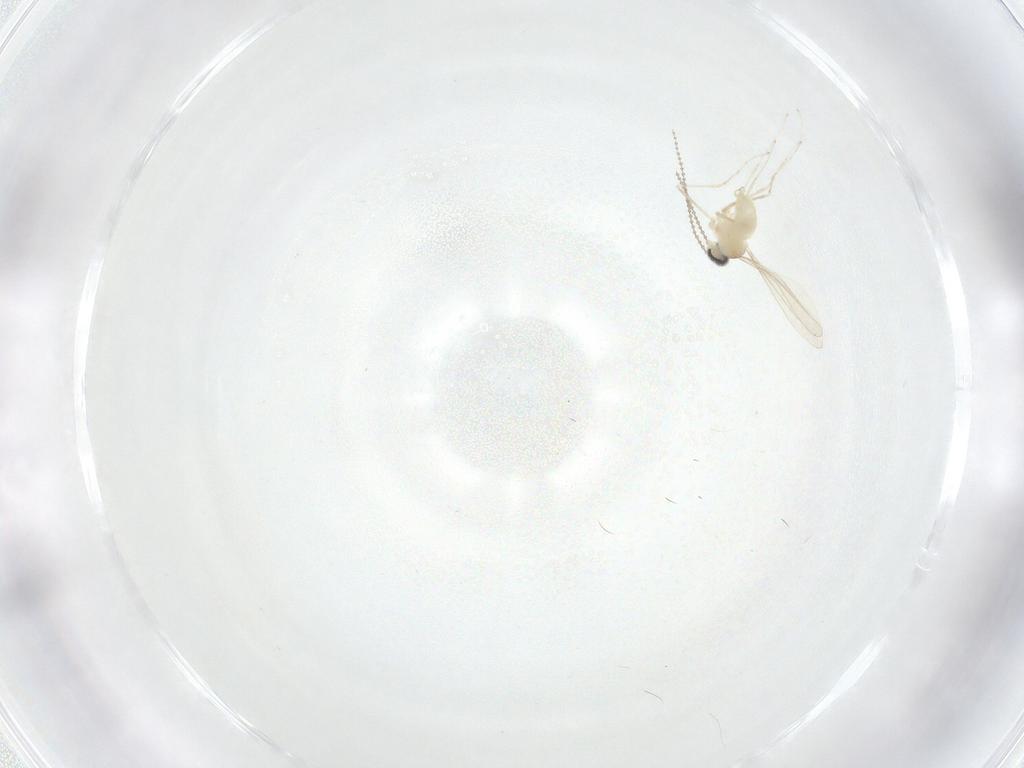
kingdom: Animalia
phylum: Arthropoda
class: Insecta
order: Diptera
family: Cecidomyiidae
